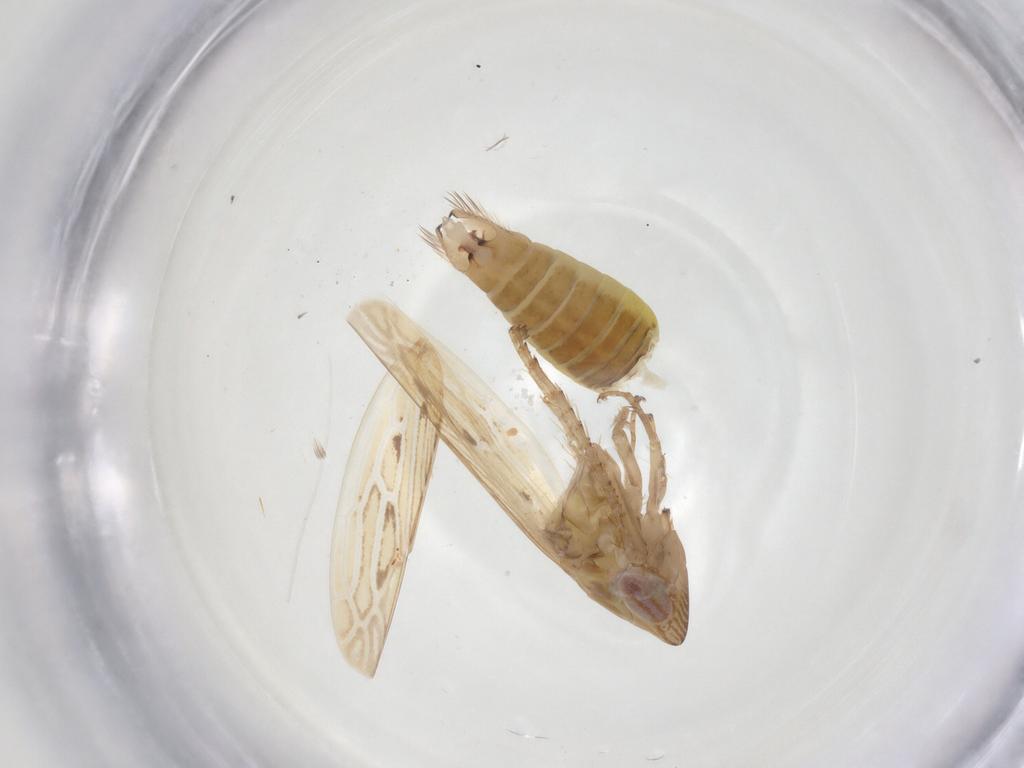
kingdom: Animalia
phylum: Arthropoda
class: Insecta
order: Hemiptera
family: Cicadellidae
